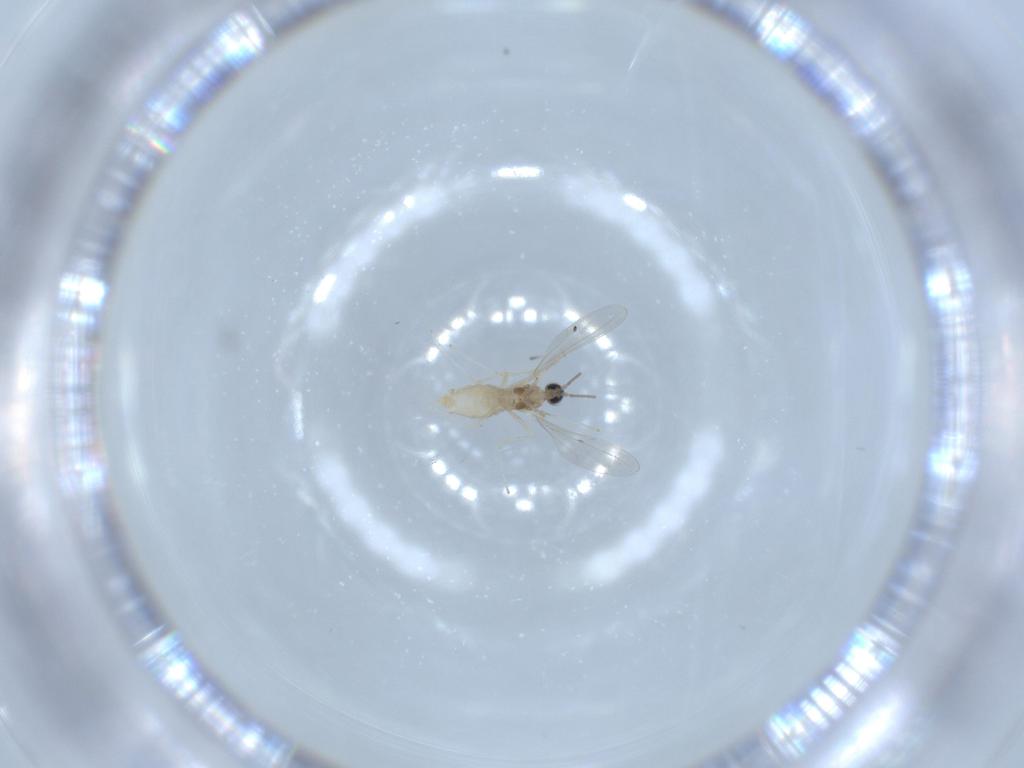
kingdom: Animalia
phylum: Arthropoda
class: Insecta
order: Diptera
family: Cecidomyiidae
